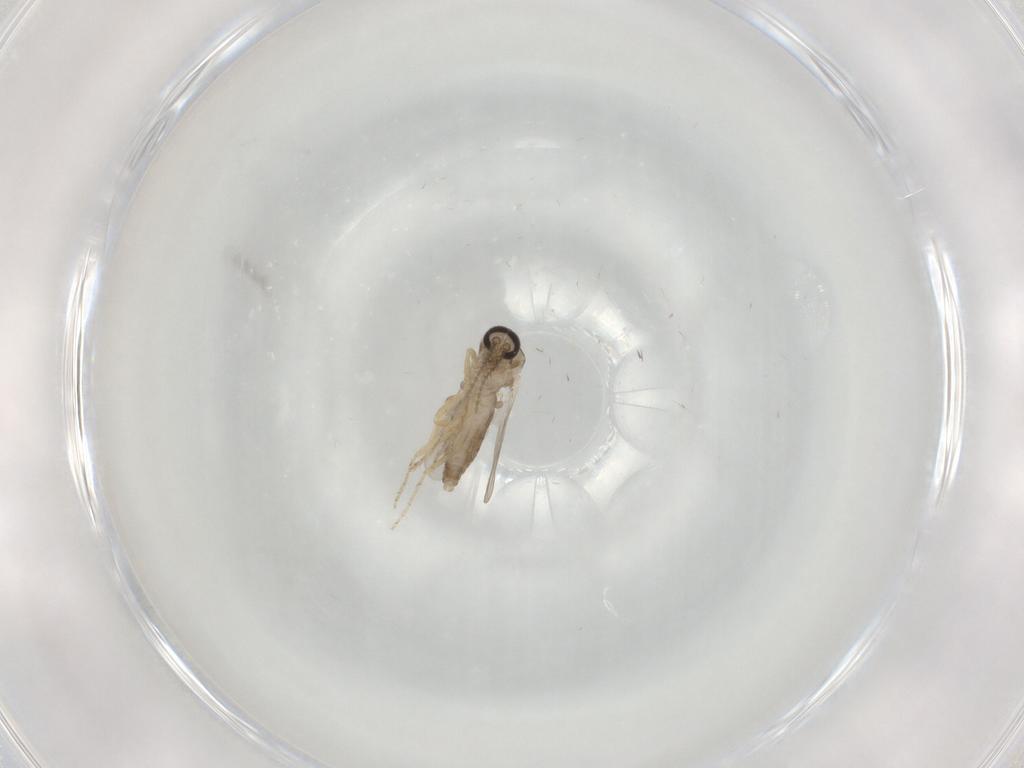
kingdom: Animalia
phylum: Arthropoda
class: Insecta
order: Diptera
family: Ceratopogonidae
